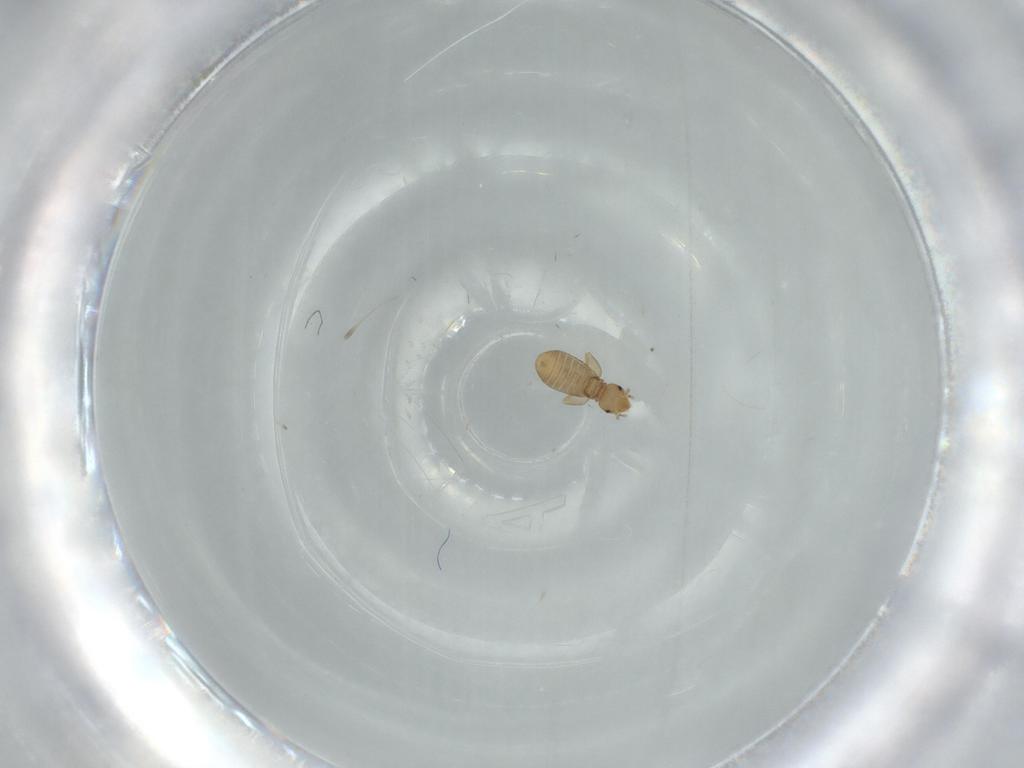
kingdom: Animalia
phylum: Arthropoda
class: Insecta
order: Psocodea
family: Liposcelididae
